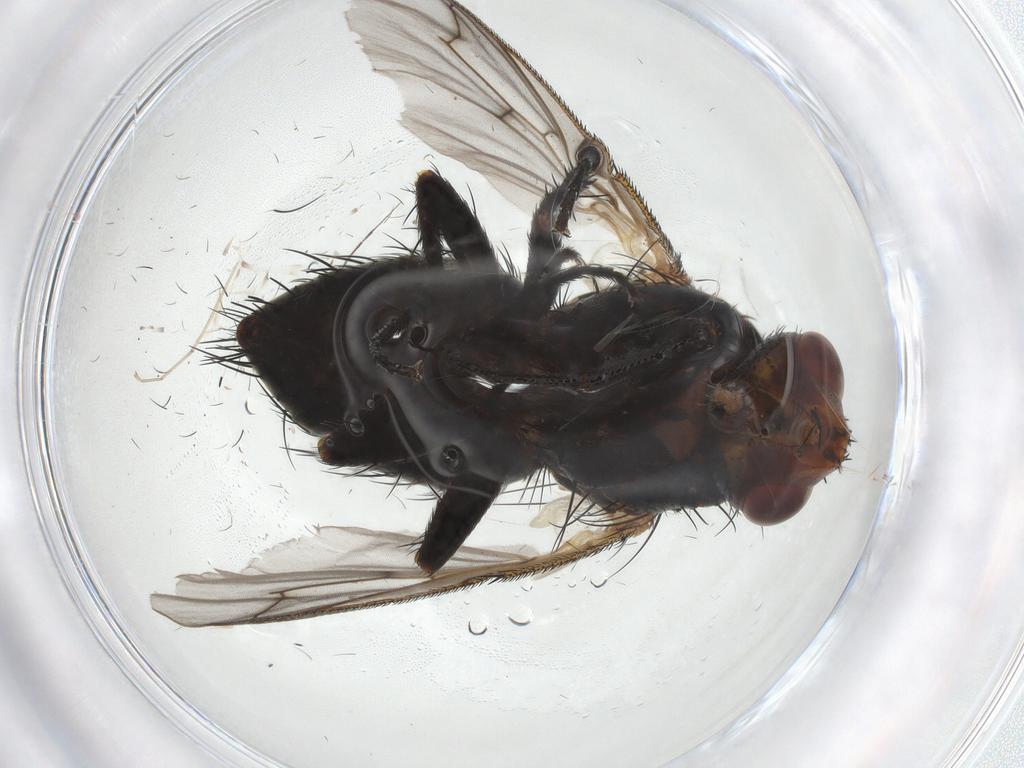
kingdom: Animalia
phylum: Arthropoda
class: Insecta
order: Diptera
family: Tachinidae
